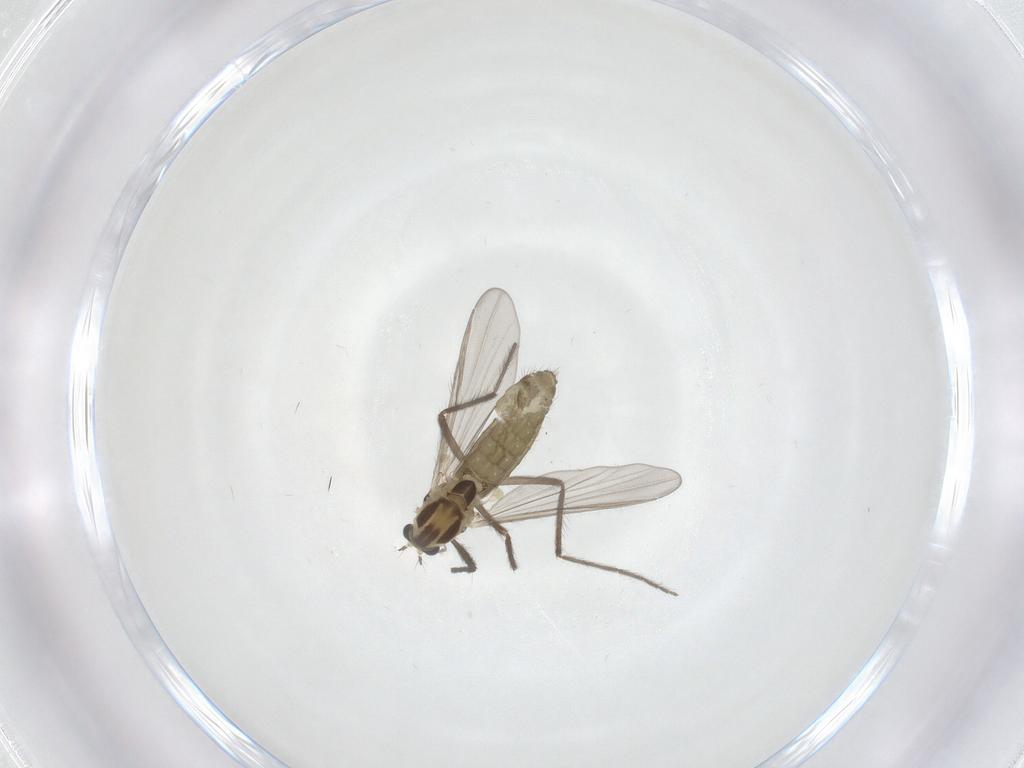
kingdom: Animalia
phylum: Arthropoda
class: Insecta
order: Diptera
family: Chironomidae
